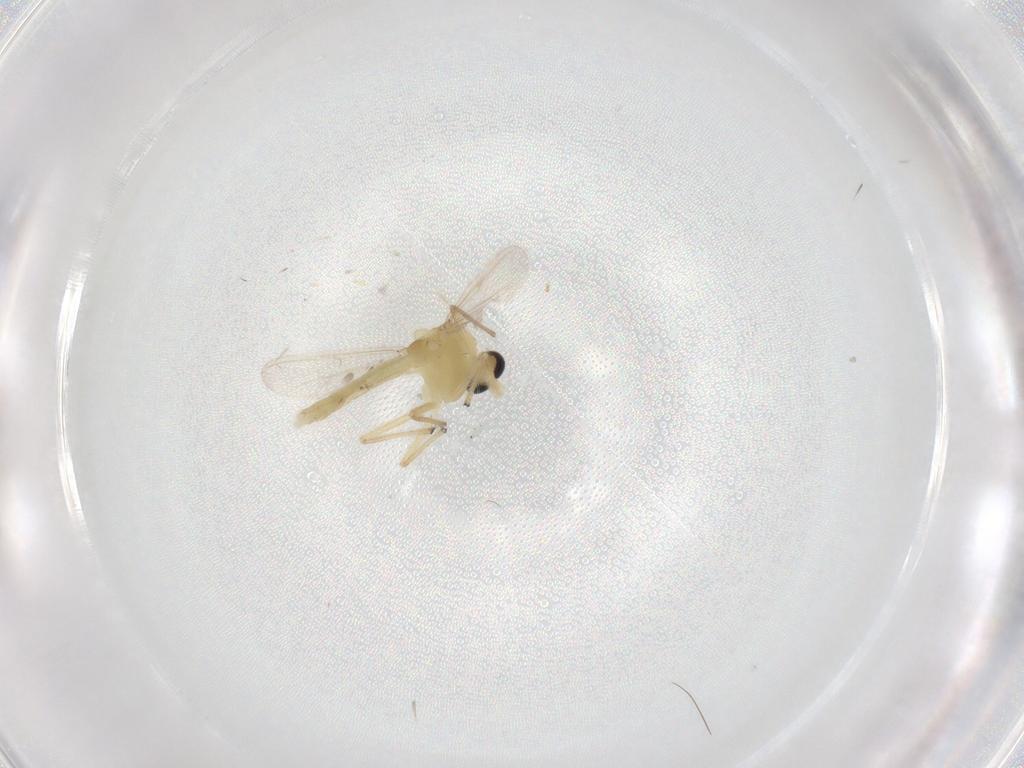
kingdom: Animalia
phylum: Arthropoda
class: Insecta
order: Diptera
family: Chironomidae
